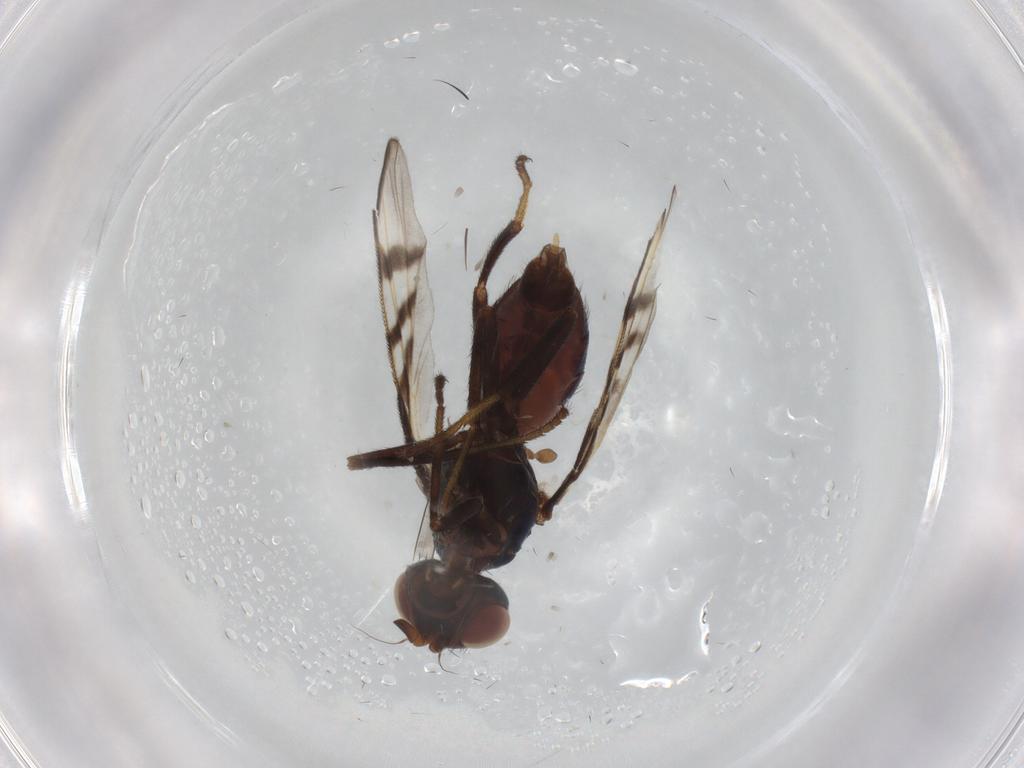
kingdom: Animalia
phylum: Arthropoda
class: Insecta
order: Diptera
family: Platystomatidae
